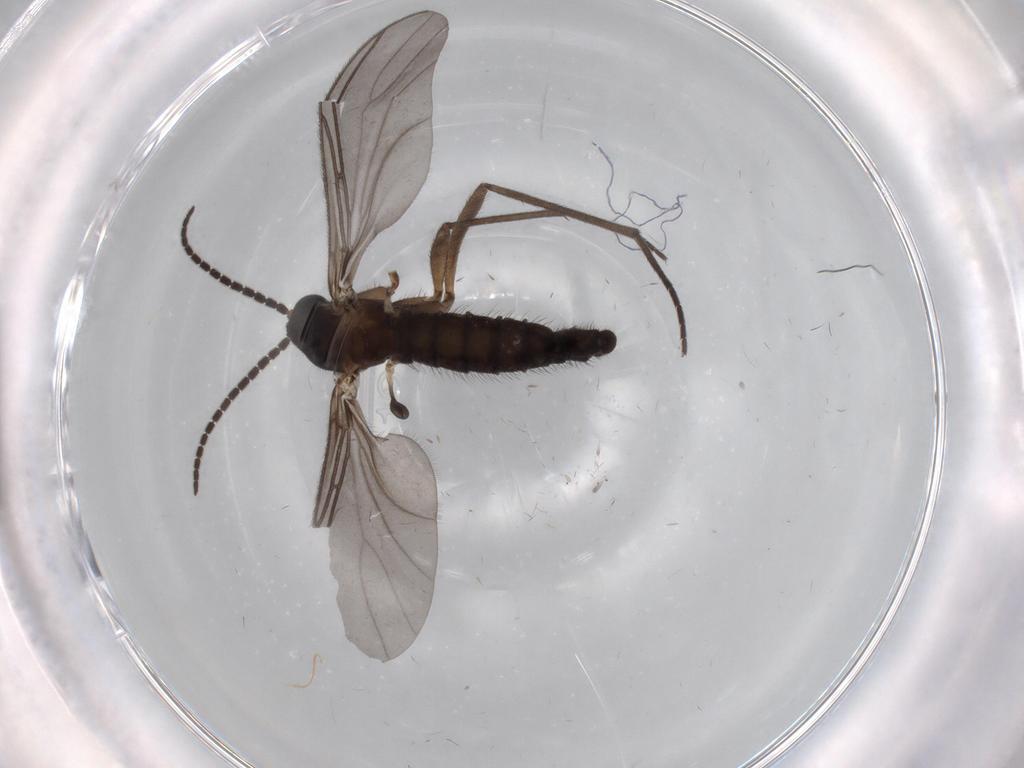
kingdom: Animalia
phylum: Arthropoda
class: Insecta
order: Diptera
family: Sciaridae
